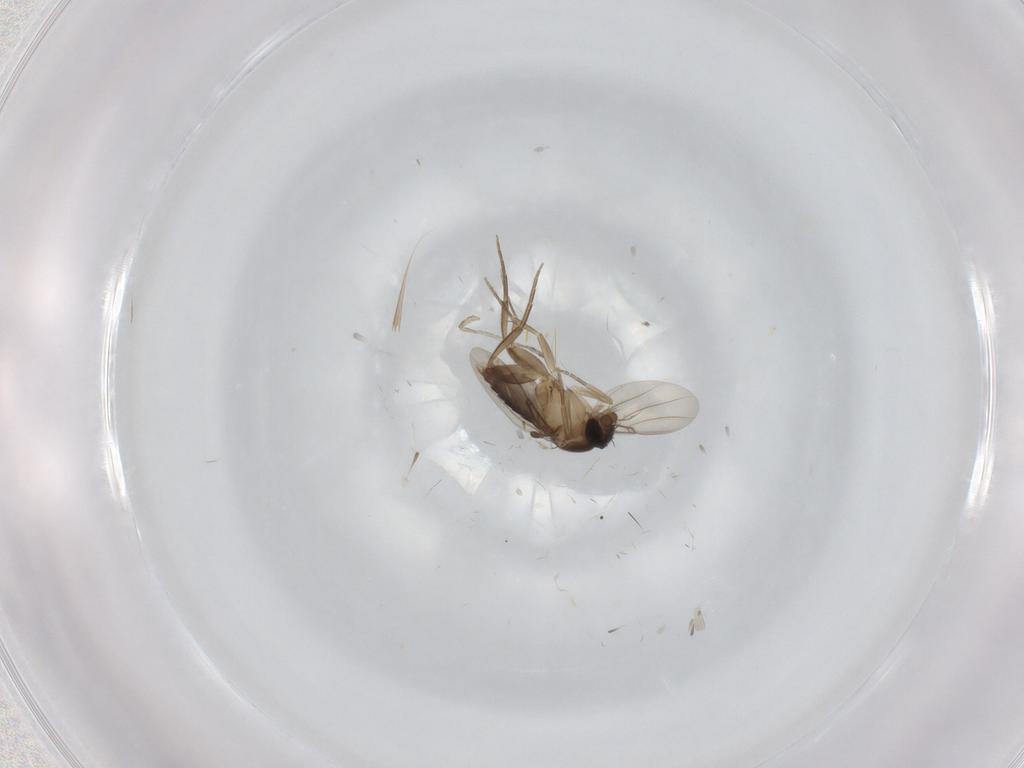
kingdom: Animalia
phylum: Arthropoda
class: Insecta
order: Diptera
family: Phoridae
